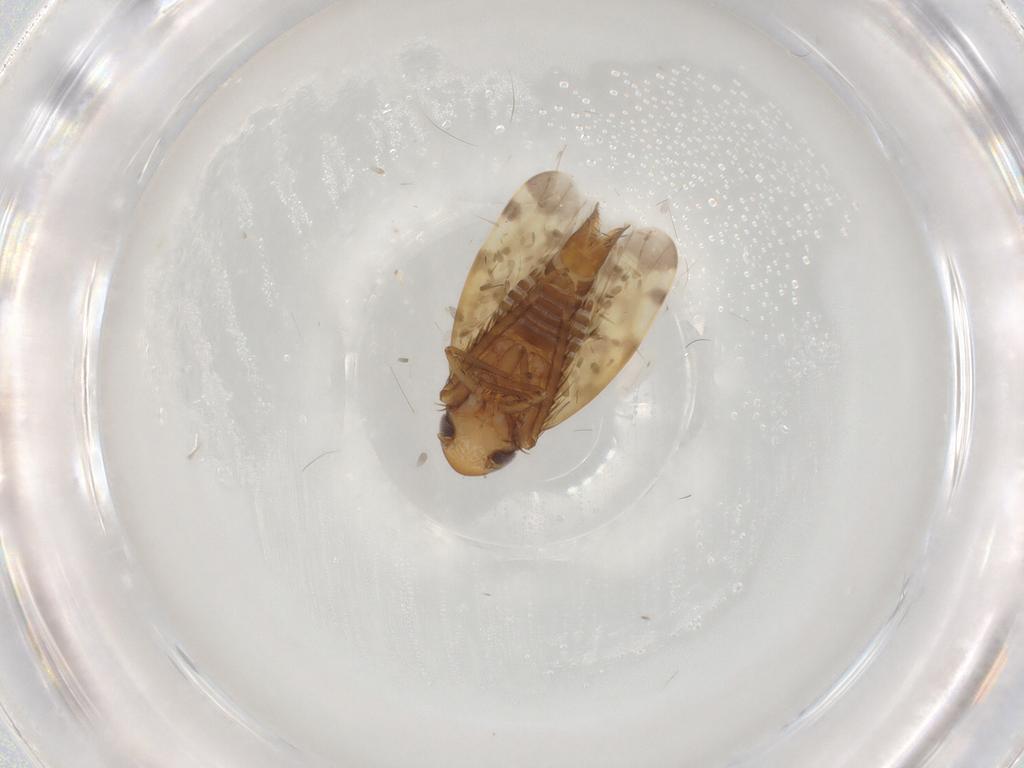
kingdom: Animalia
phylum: Arthropoda
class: Insecta
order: Hemiptera
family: Cicadellidae
